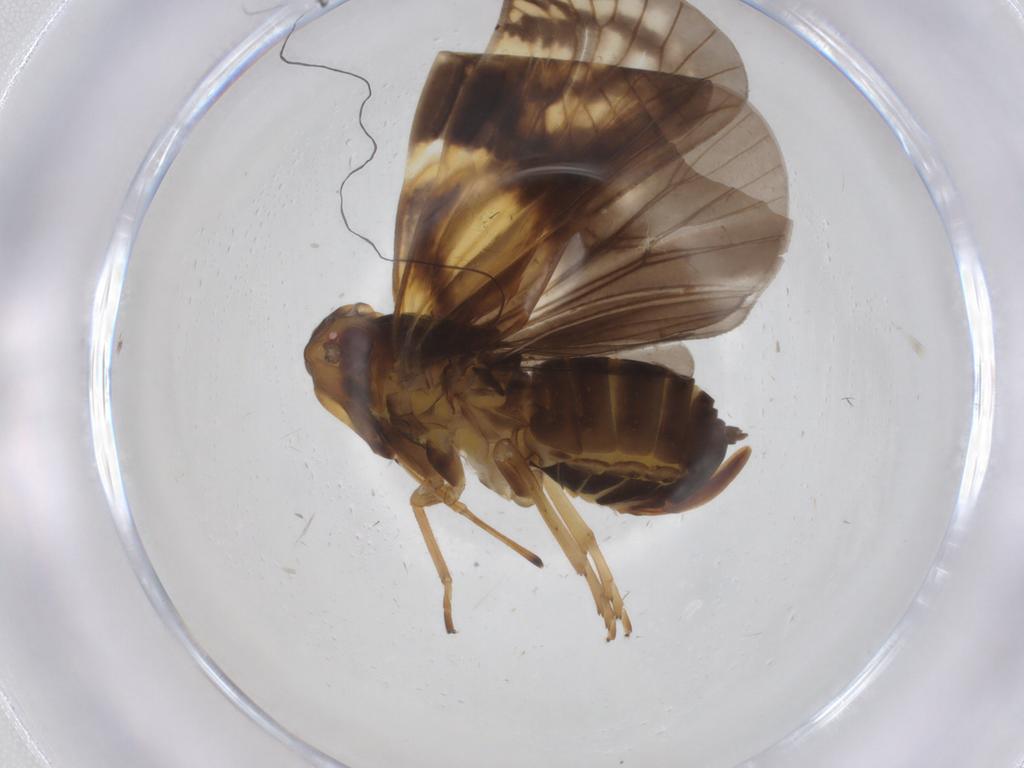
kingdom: Animalia
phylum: Arthropoda
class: Insecta
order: Hemiptera
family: Cixiidae
